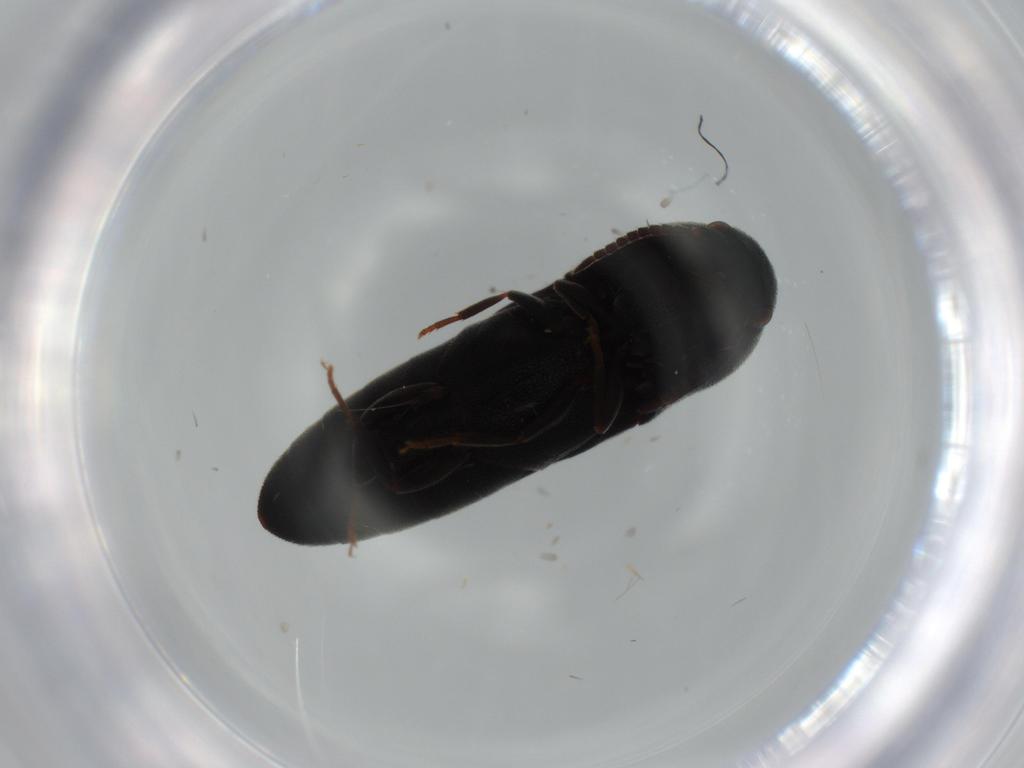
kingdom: Animalia
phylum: Arthropoda
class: Insecta
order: Coleoptera
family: Eucnemidae
